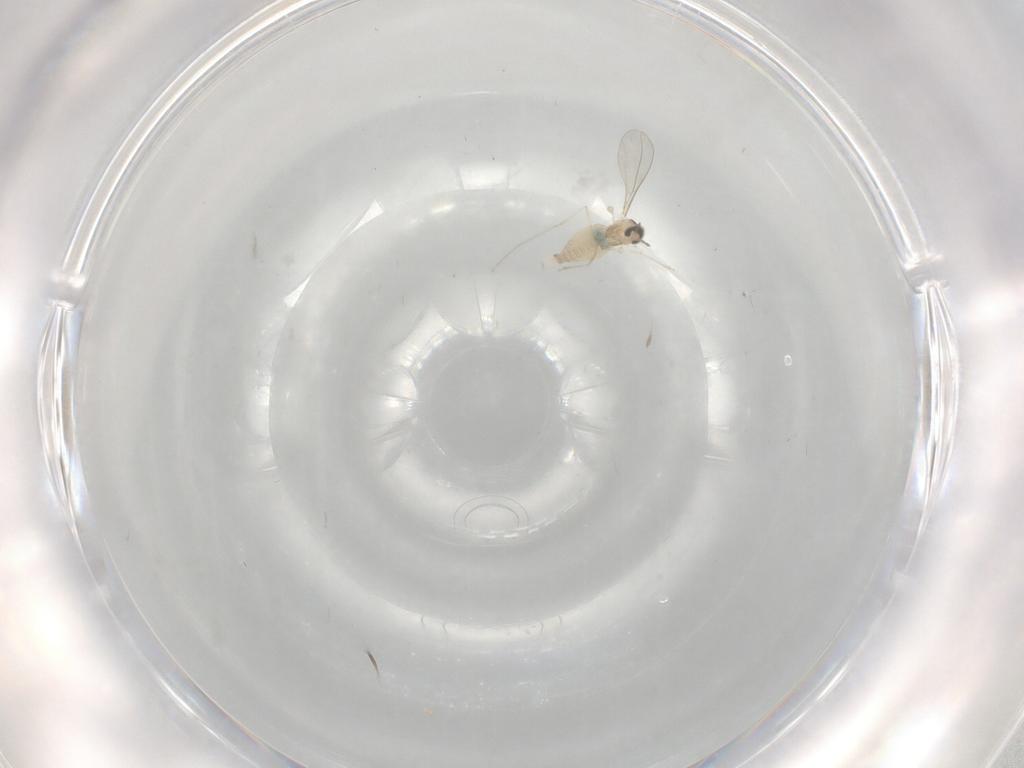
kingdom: Animalia
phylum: Arthropoda
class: Insecta
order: Diptera
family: Cecidomyiidae
